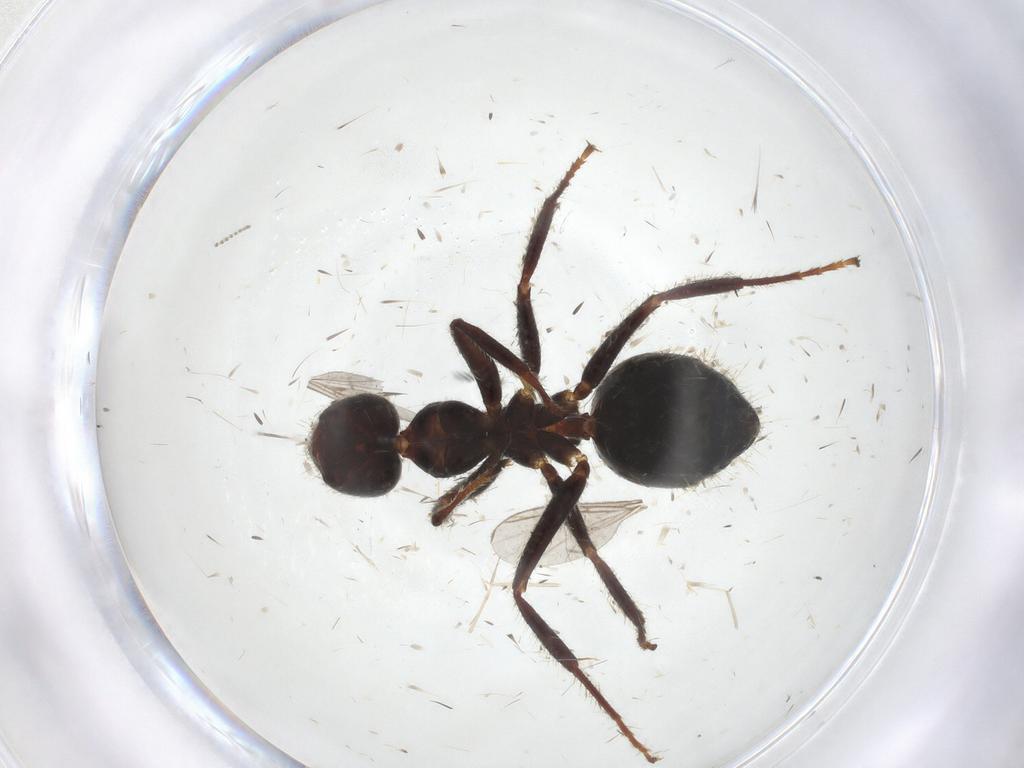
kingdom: Animalia
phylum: Arthropoda
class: Insecta
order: Hymenoptera
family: Formicidae
